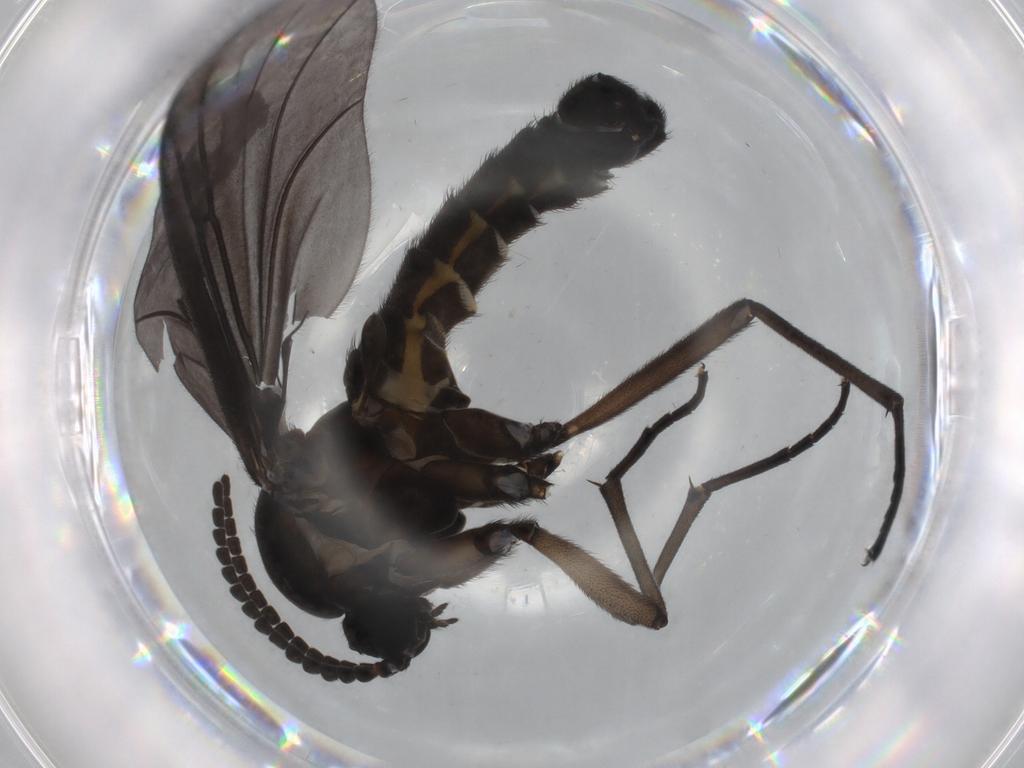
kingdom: Animalia
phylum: Arthropoda
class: Insecta
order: Diptera
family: Sciaridae
